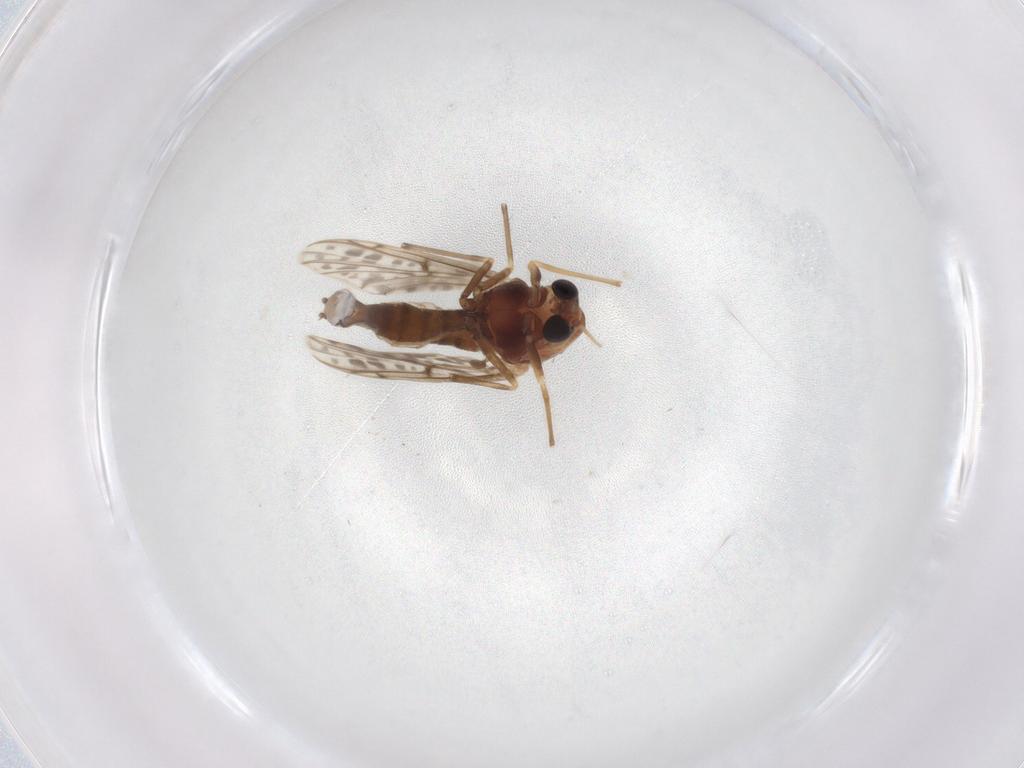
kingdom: Animalia
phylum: Arthropoda
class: Insecta
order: Diptera
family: Chironomidae
